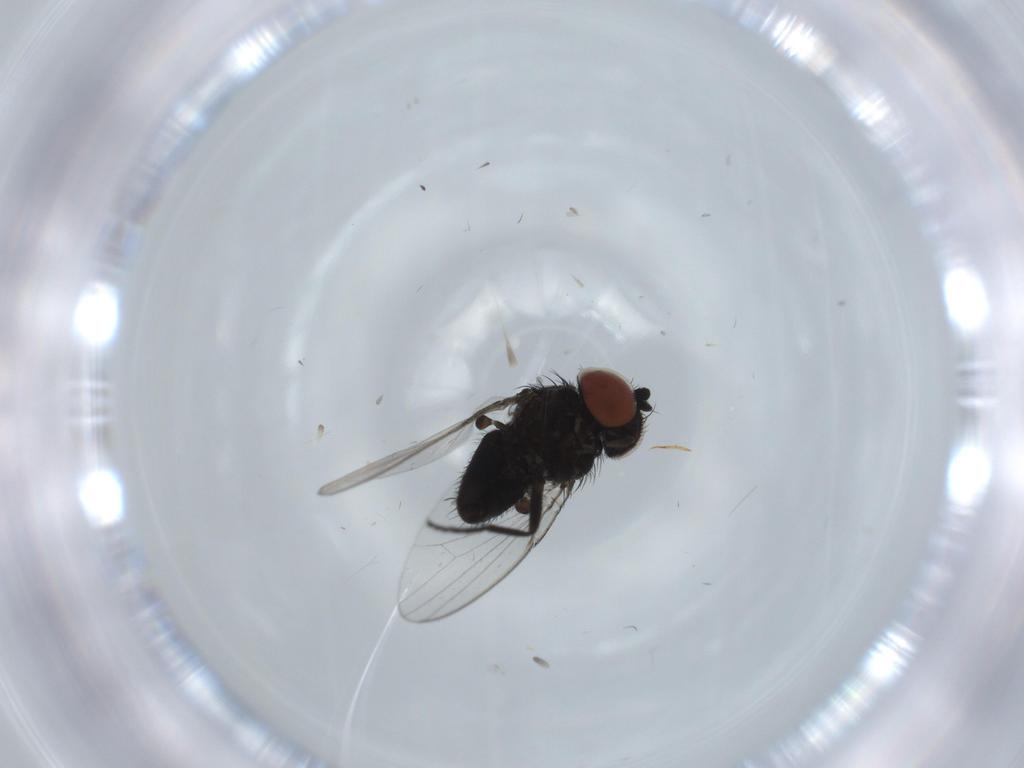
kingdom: Animalia
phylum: Arthropoda
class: Insecta
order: Diptera
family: Milichiidae
